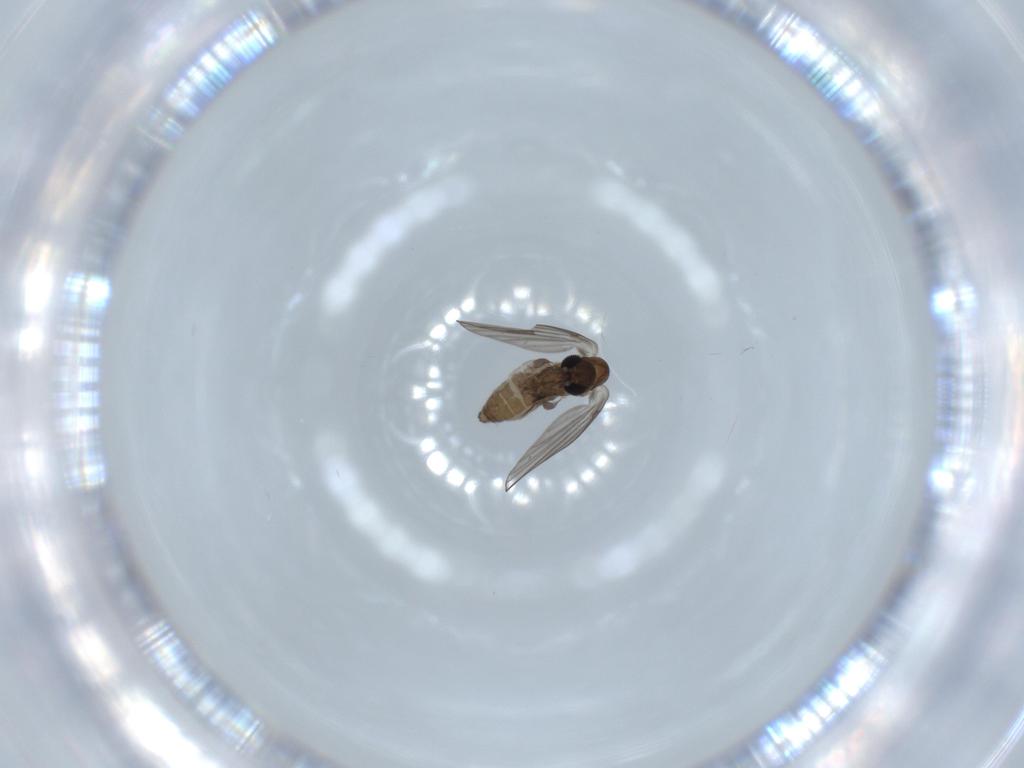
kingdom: Animalia
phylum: Arthropoda
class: Insecta
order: Diptera
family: Psychodidae
